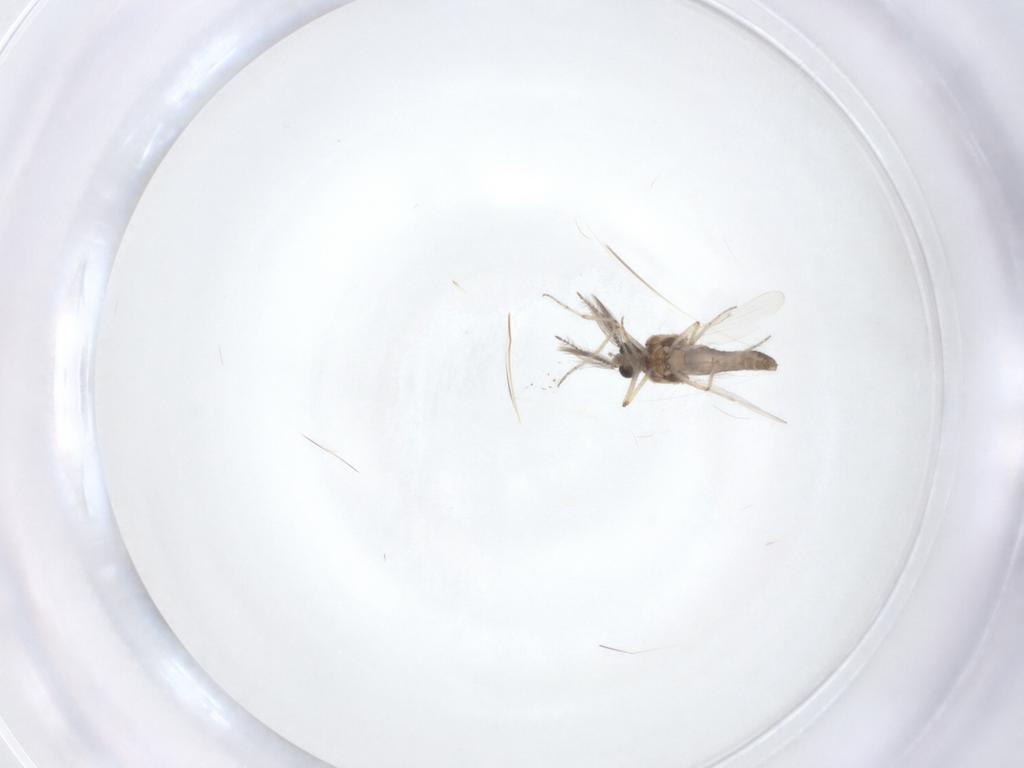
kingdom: Animalia
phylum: Arthropoda
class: Insecta
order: Diptera
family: Ceratopogonidae
